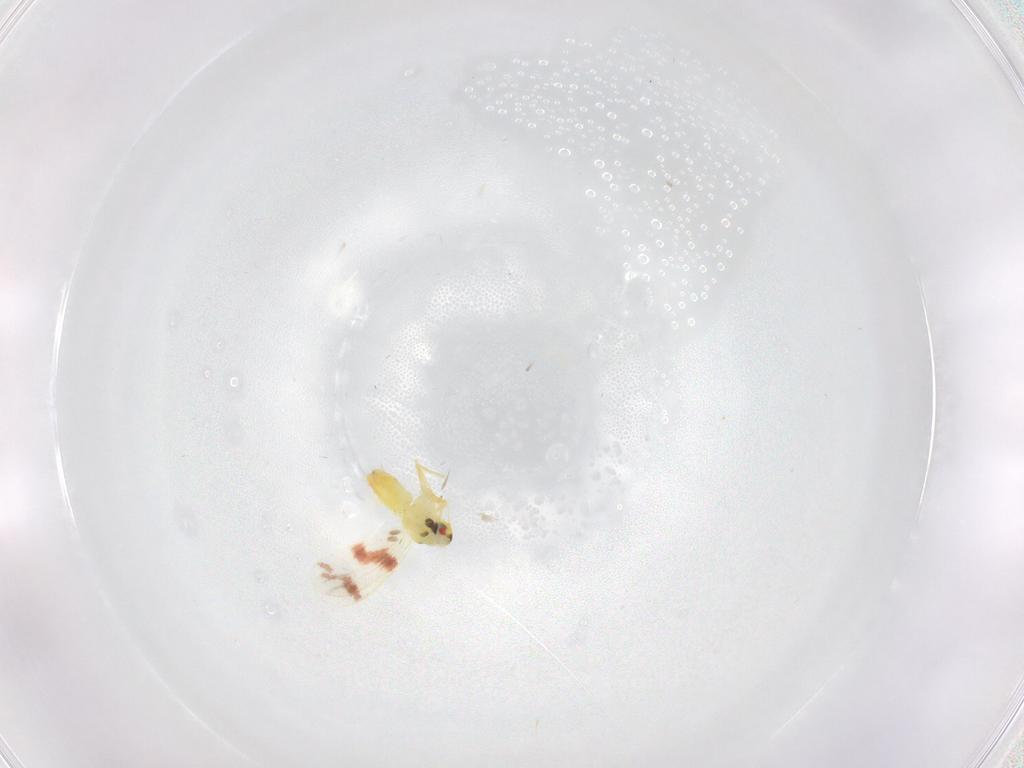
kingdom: Animalia
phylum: Arthropoda
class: Insecta
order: Hemiptera
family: Aleyrodidae
